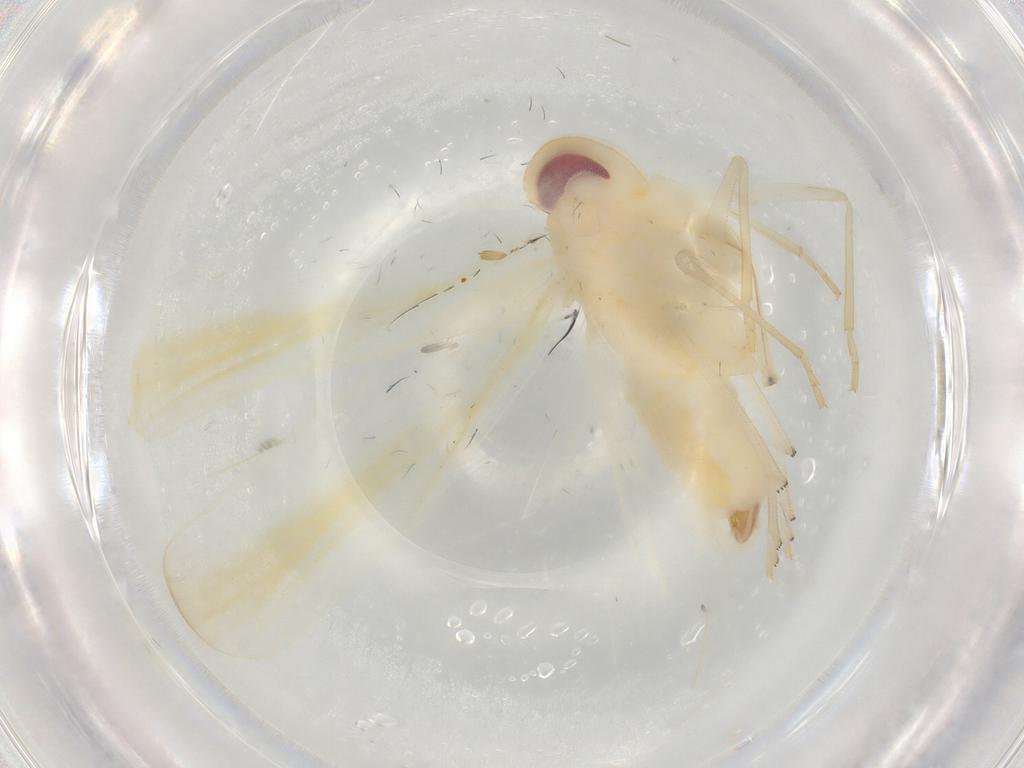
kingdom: Animalia
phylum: Arthropoda
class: Insecta
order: Hemiptera
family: Derbidae
